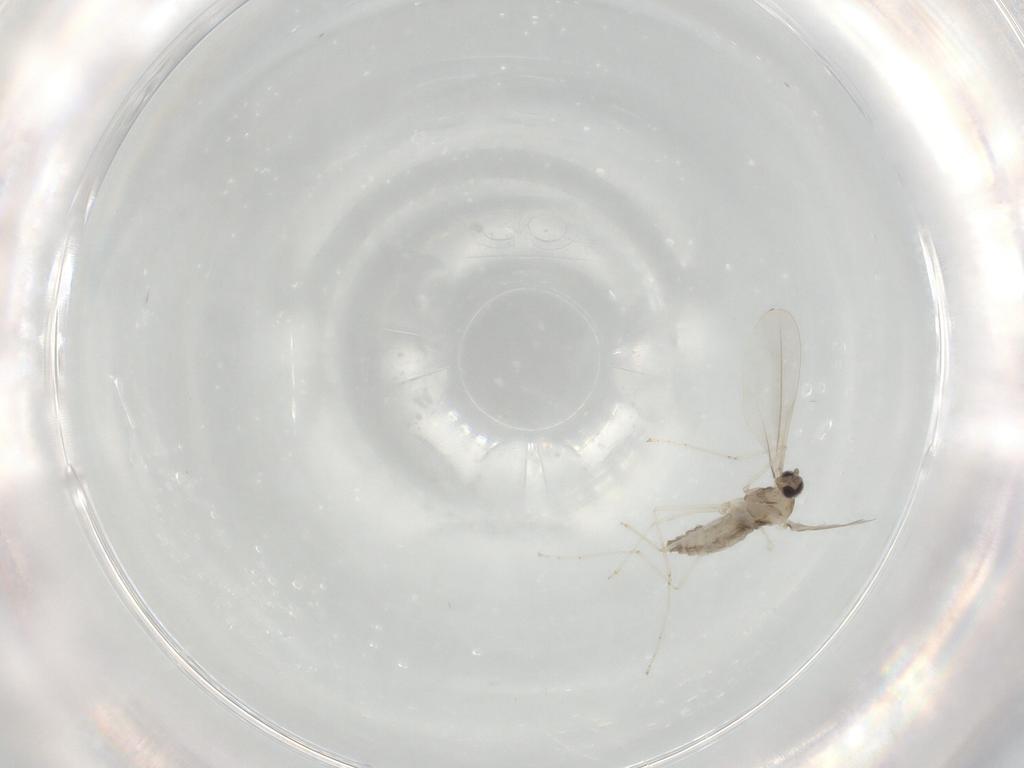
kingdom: Animalia
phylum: Arthropoda
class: Insecta
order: Diptera
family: Cecidomyiidae
